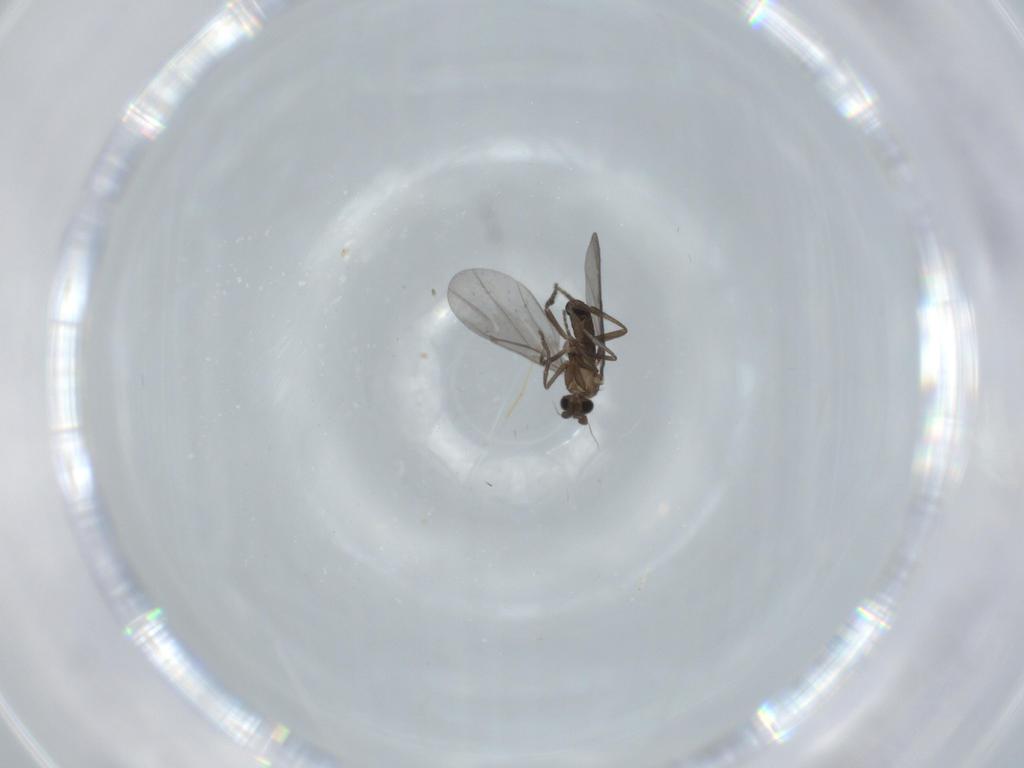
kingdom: Animalia
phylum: Arthropoda
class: Insecta
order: Diptera
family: Phoridae
